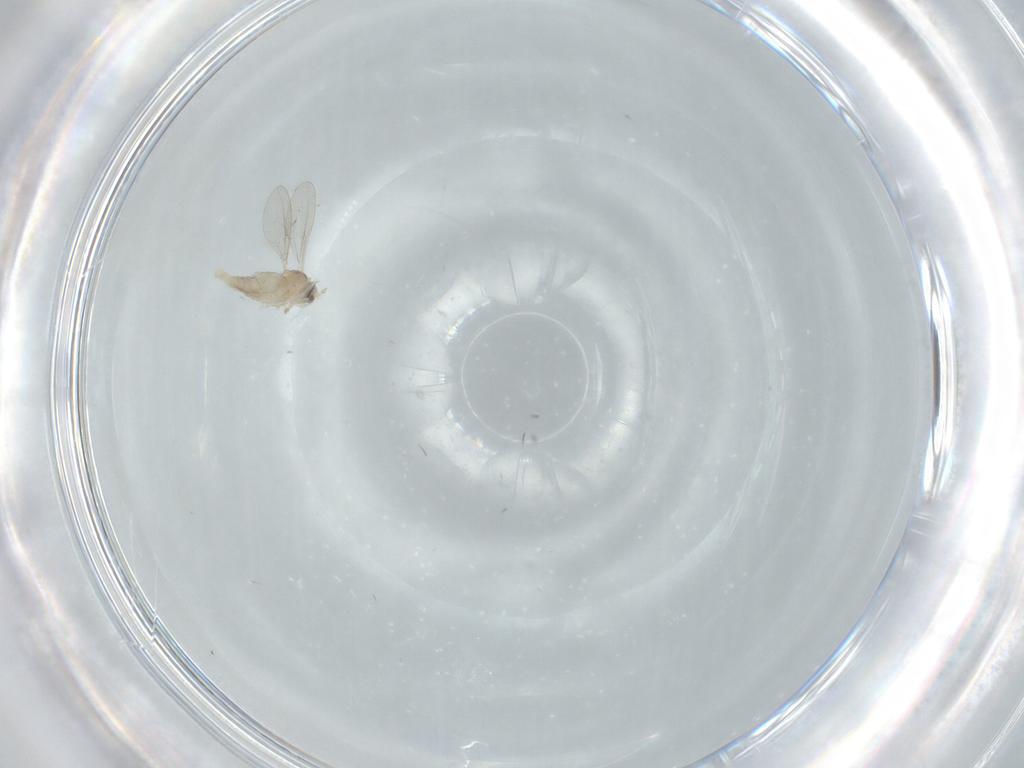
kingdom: Animalia
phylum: Arthropoda
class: Insecta
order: Diptera
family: Cecidomyiidae
